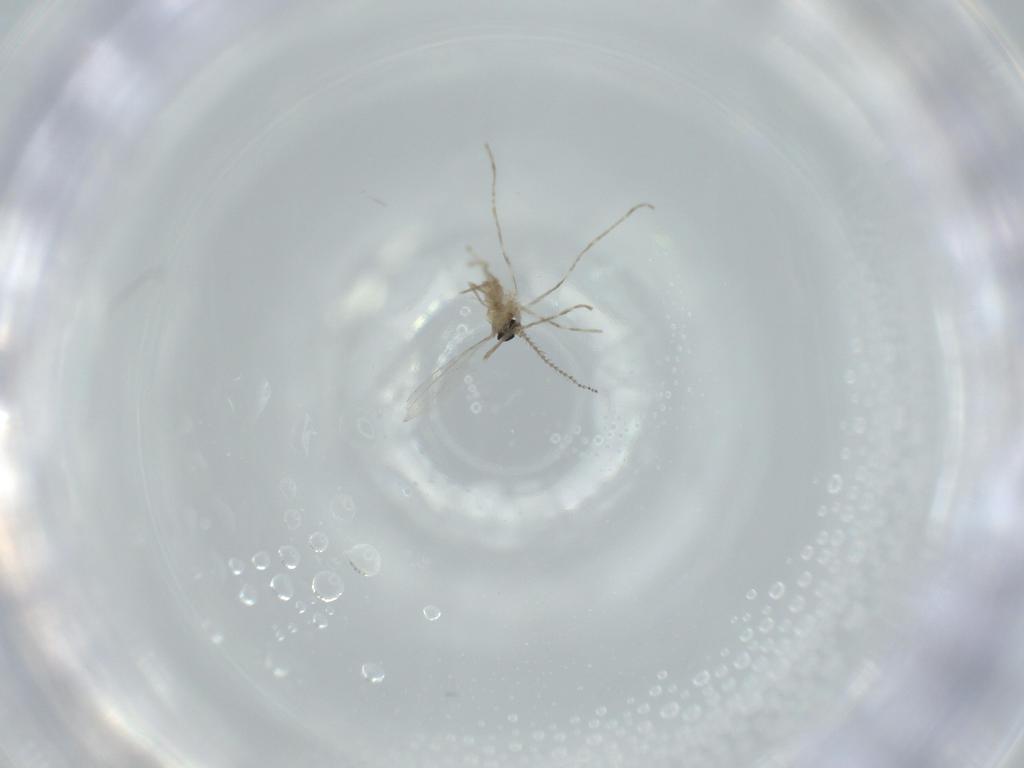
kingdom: Animalia
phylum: Arthropoda
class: Insecta
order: Diptera
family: Cecidomyiidae
